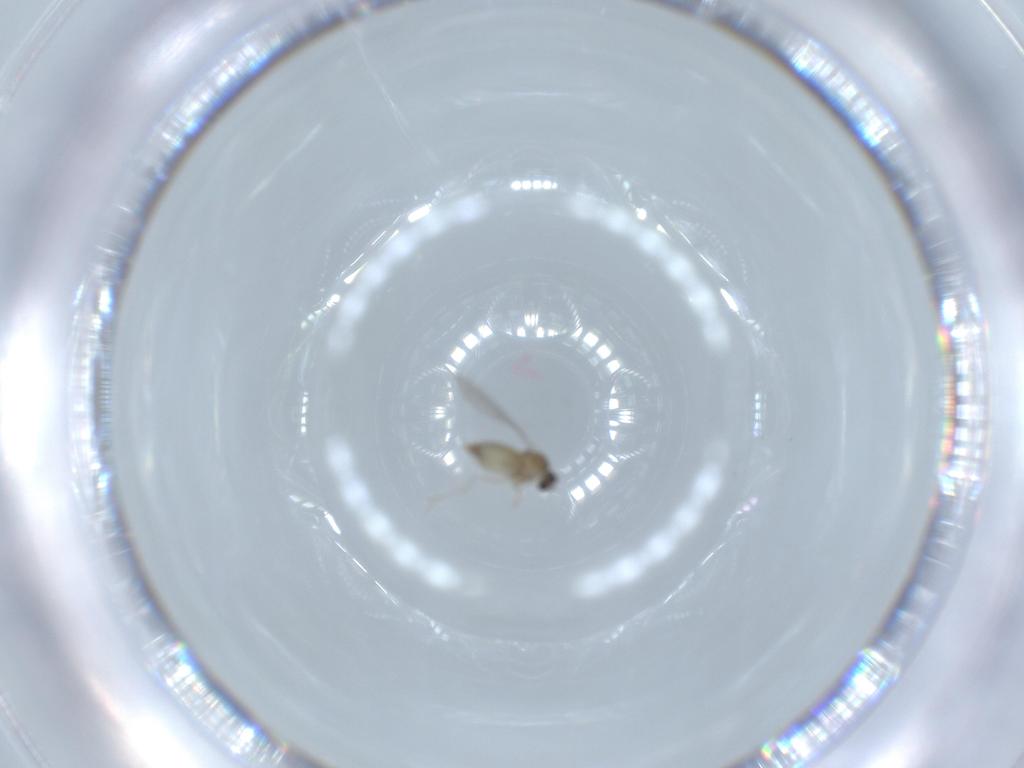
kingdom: Animalia
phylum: Arthropoda
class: Insecta
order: Diptera
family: Cecidomyiidae
